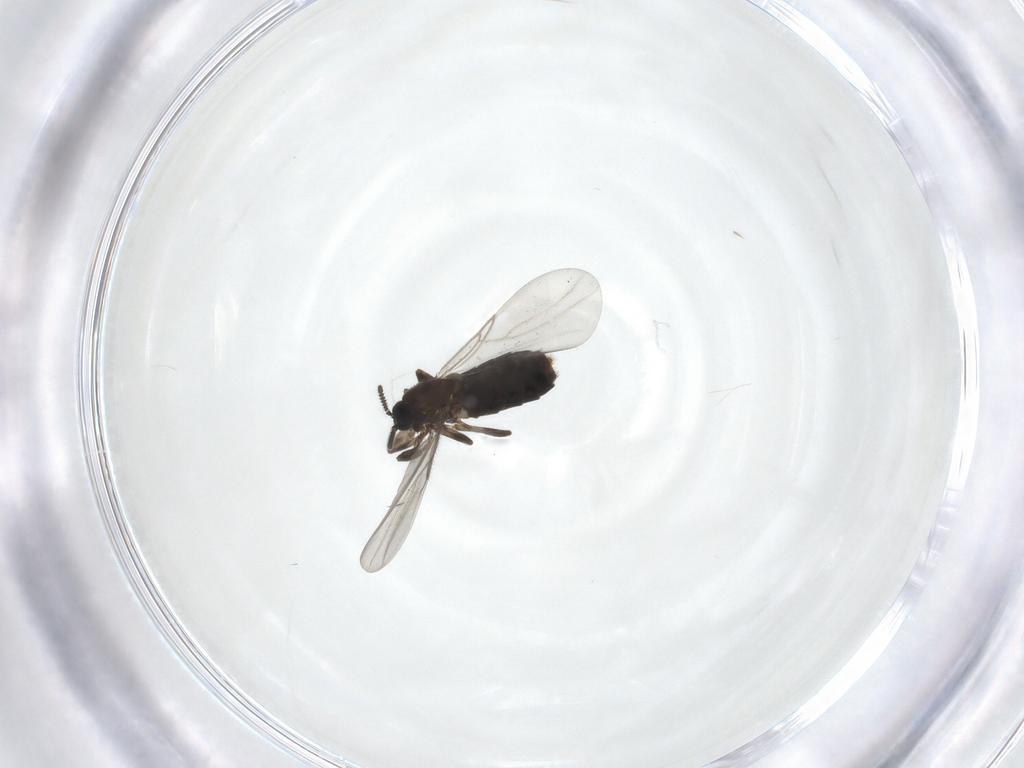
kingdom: Animalia
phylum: Arthropoda
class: Insecta
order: Diptera
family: Scatopsidae
